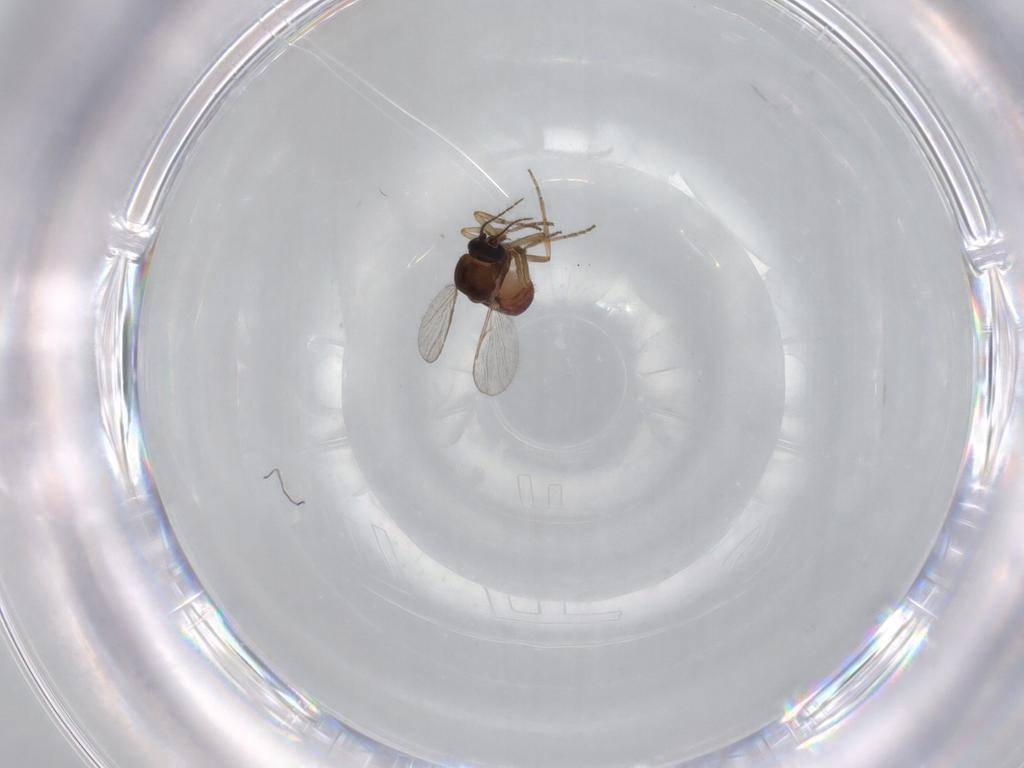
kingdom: Animalia
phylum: Arthropoda
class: Insecta
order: Diptera
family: Chironomidae
